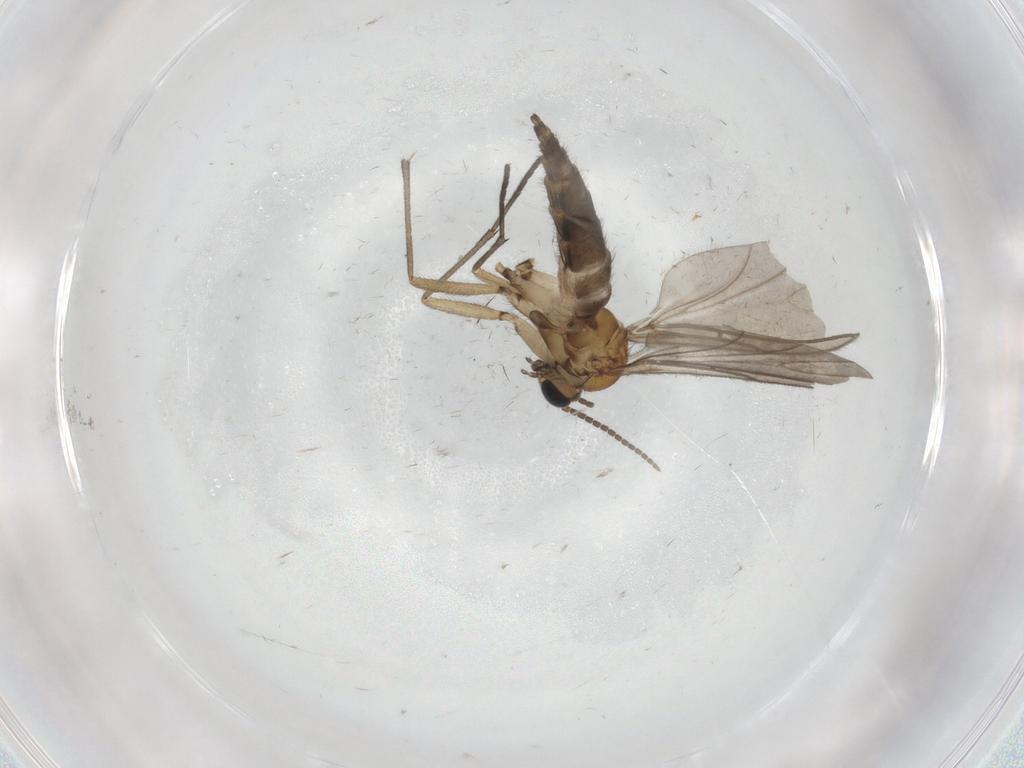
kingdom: Animalia
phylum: Arthropoda
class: Insecta
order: Diptera
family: Sciaridae
